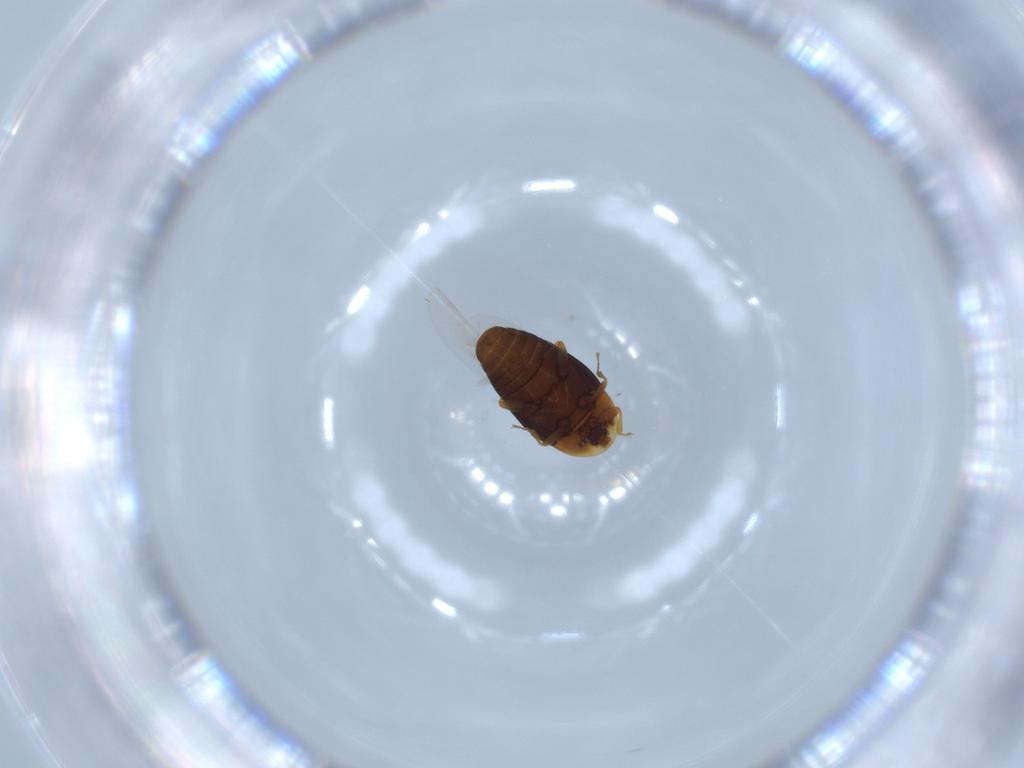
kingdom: Animalia
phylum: Arthropoda
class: Insecta
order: Coleoptera
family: Corylophidae
